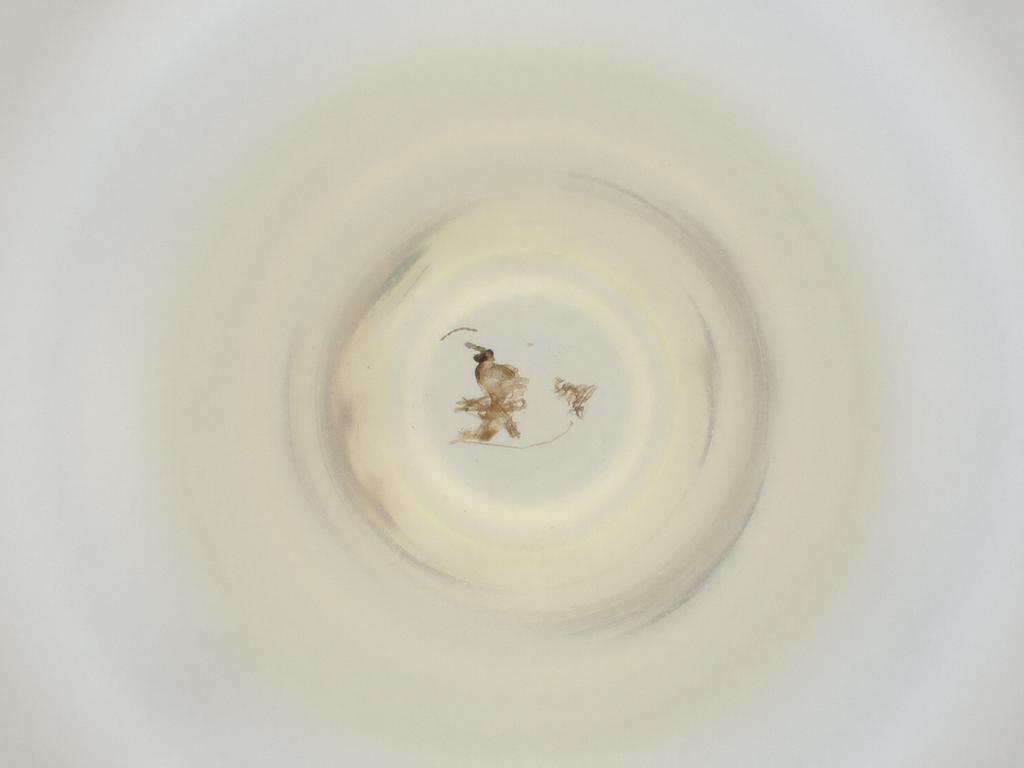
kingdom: Animalia
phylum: Arthropoda
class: Insecta
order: Diptera
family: Cecidomyiidae
